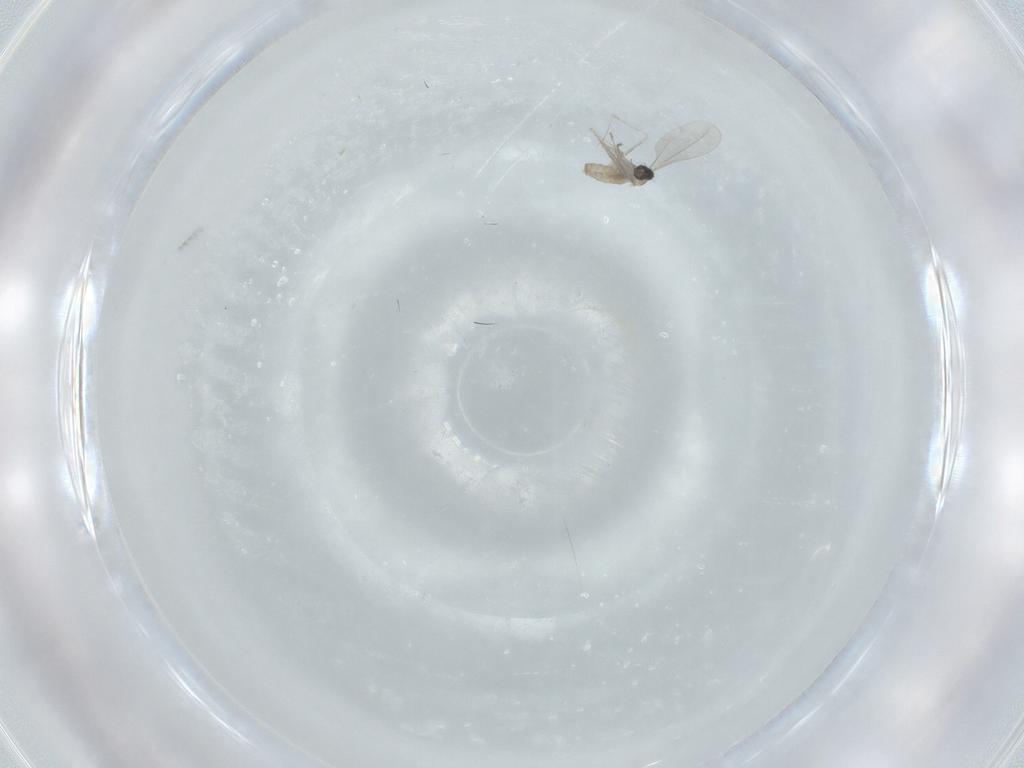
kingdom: Animalia
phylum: Arthropoda
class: Insecta
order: Diptera
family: Cecidomyiidae
